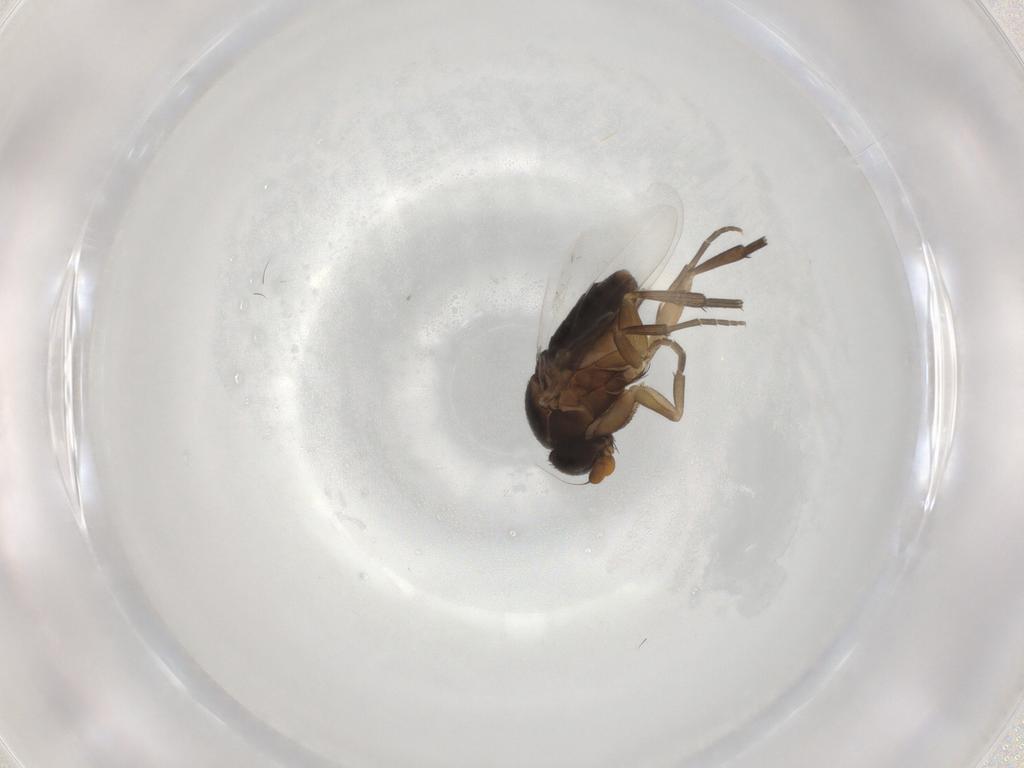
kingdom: Animalia
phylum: Arthropoda
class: Insecta
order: Diptera
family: Phoridae
